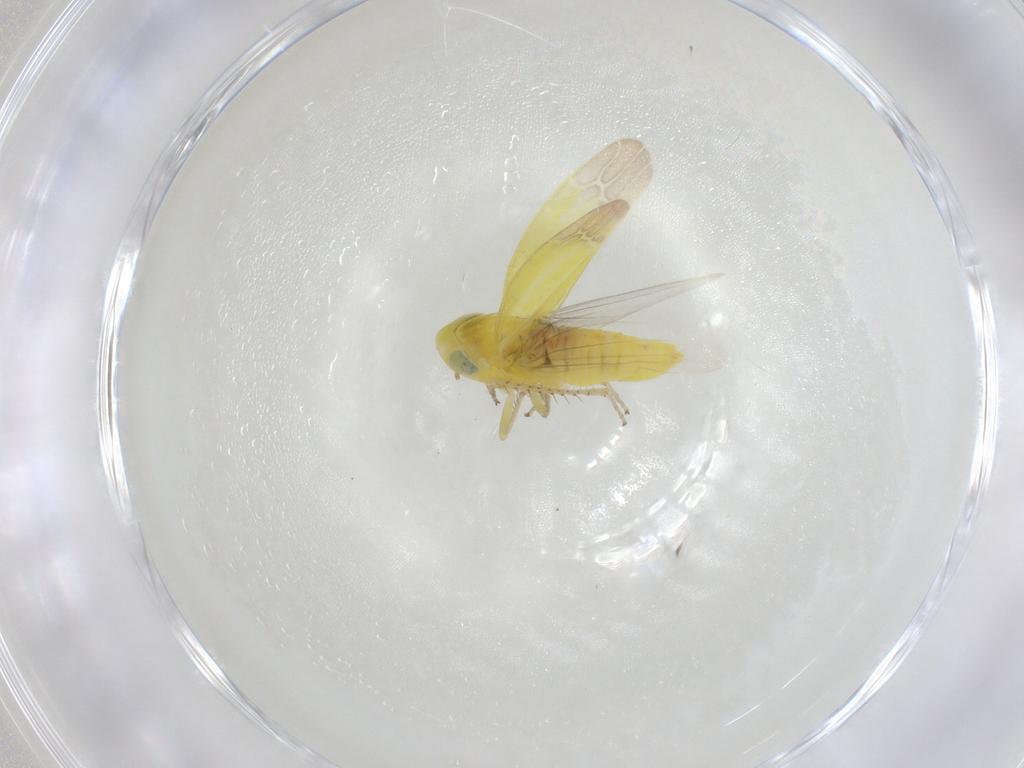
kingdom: Animalia
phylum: Arthropoda
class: Insecta
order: Hemiptera
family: Cicadellidae
